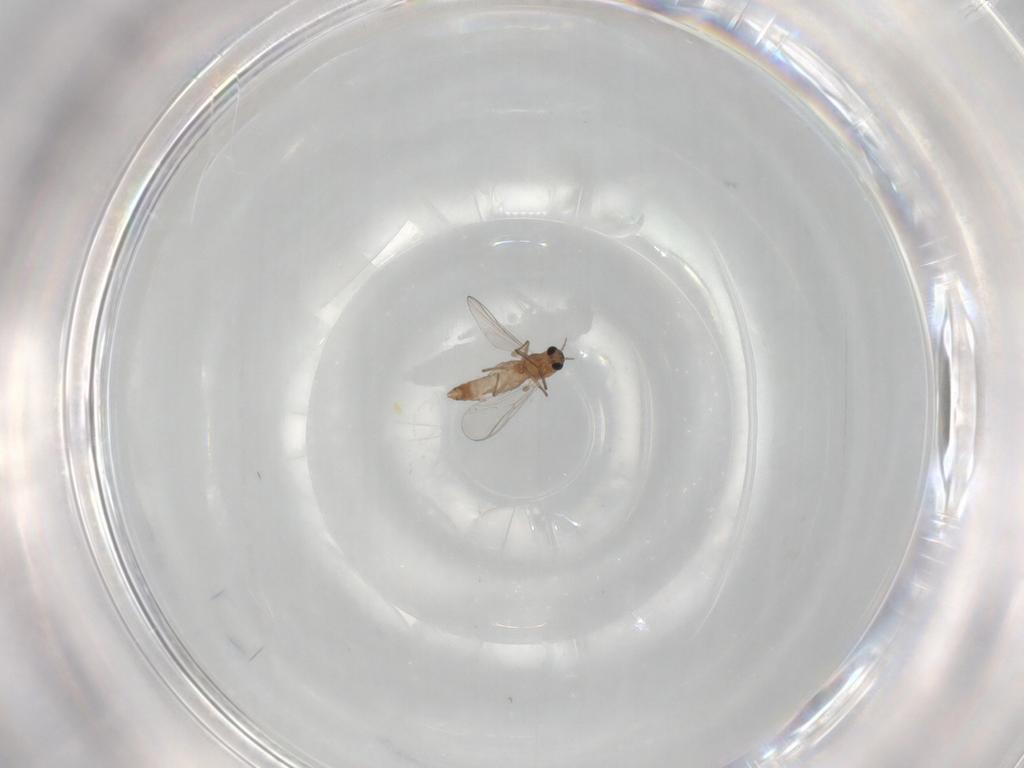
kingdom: Animalia
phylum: Arthropoda
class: Insecta
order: Diptera
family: Chironomidae
